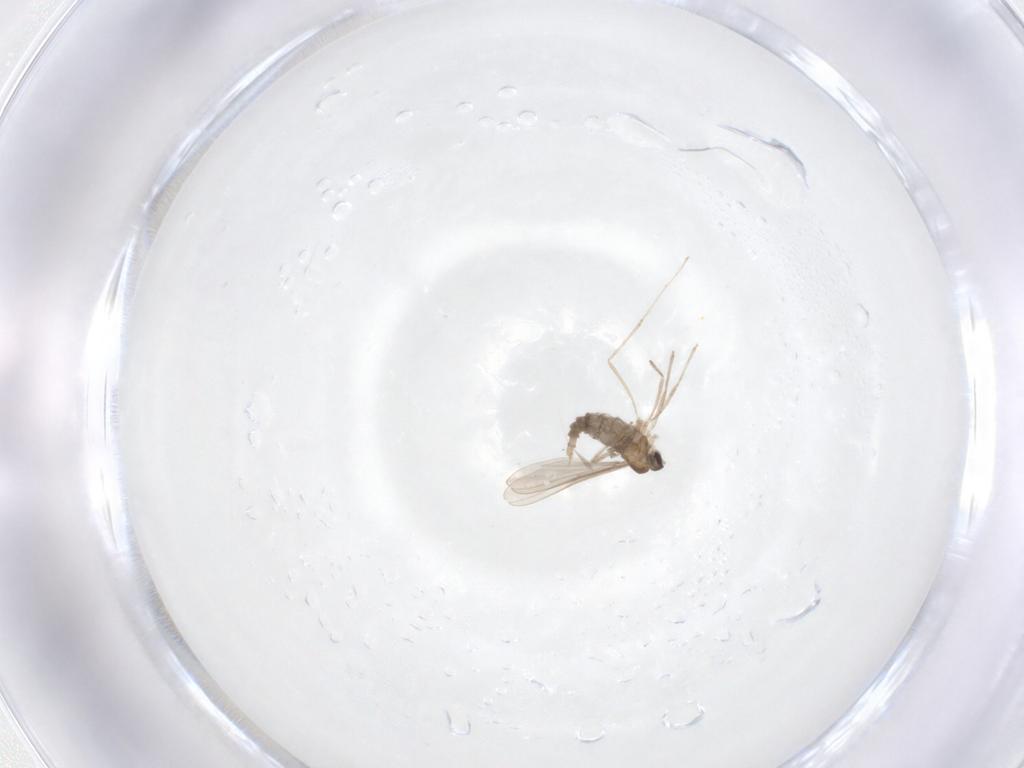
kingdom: Animalia
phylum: Arthropoda
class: Insecta
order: Diptera
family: Cecidomyiidae
